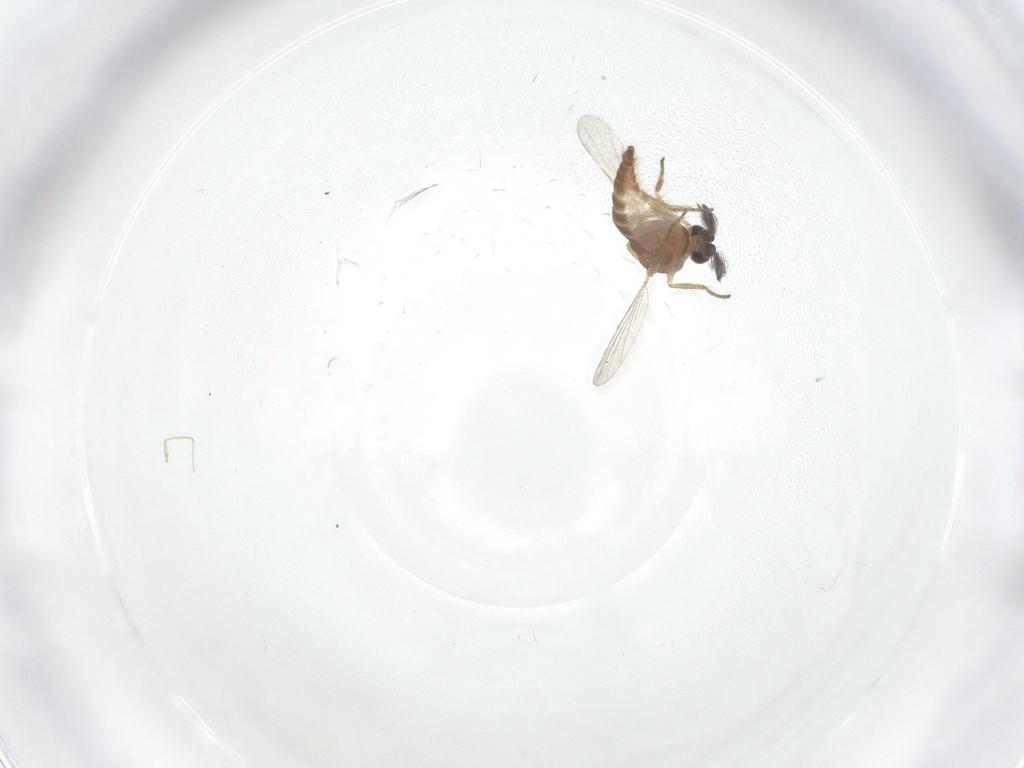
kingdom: Animalia
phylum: Arthropoda
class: Insecta
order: Diptera
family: Ceratopogonidae
